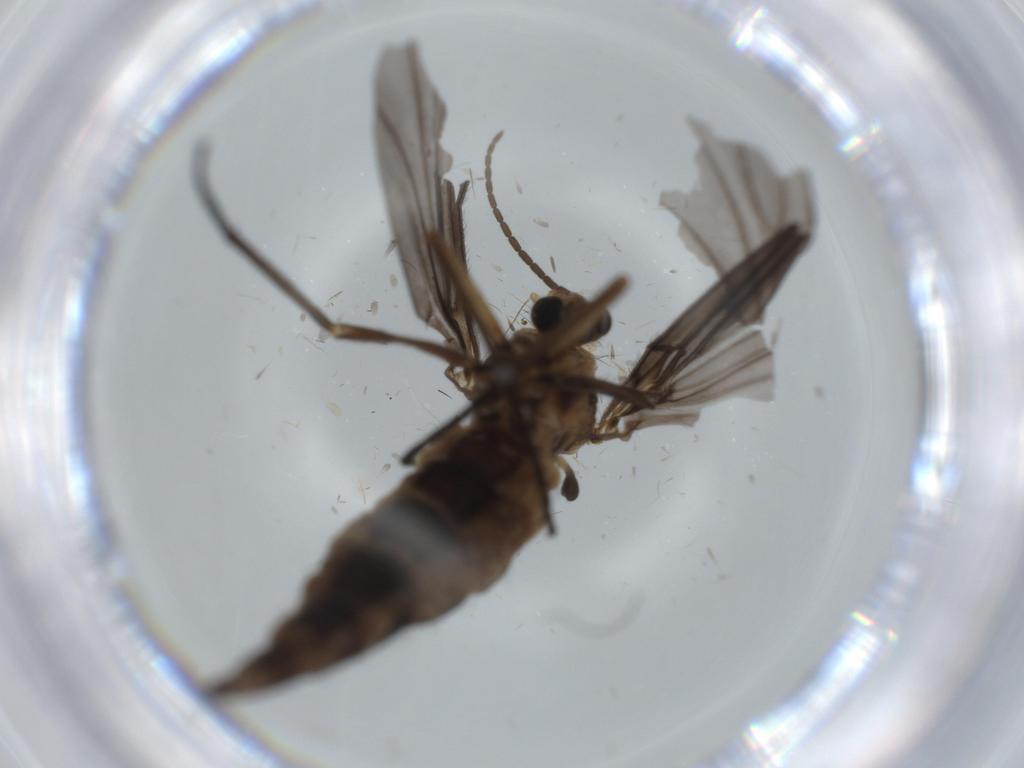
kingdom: Animalia
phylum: Arthropoda
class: Insecta
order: Diptera
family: Sciaridae
